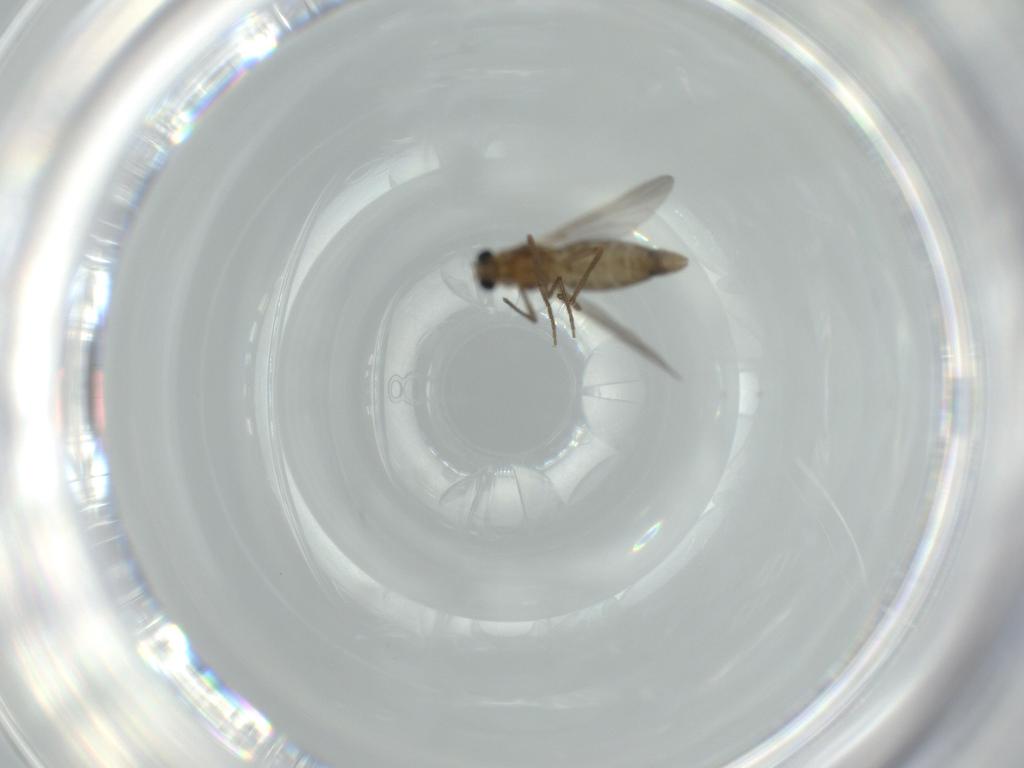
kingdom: Animalia
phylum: Arthropoda
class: Insecta
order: Diptera
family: Chironomidae
